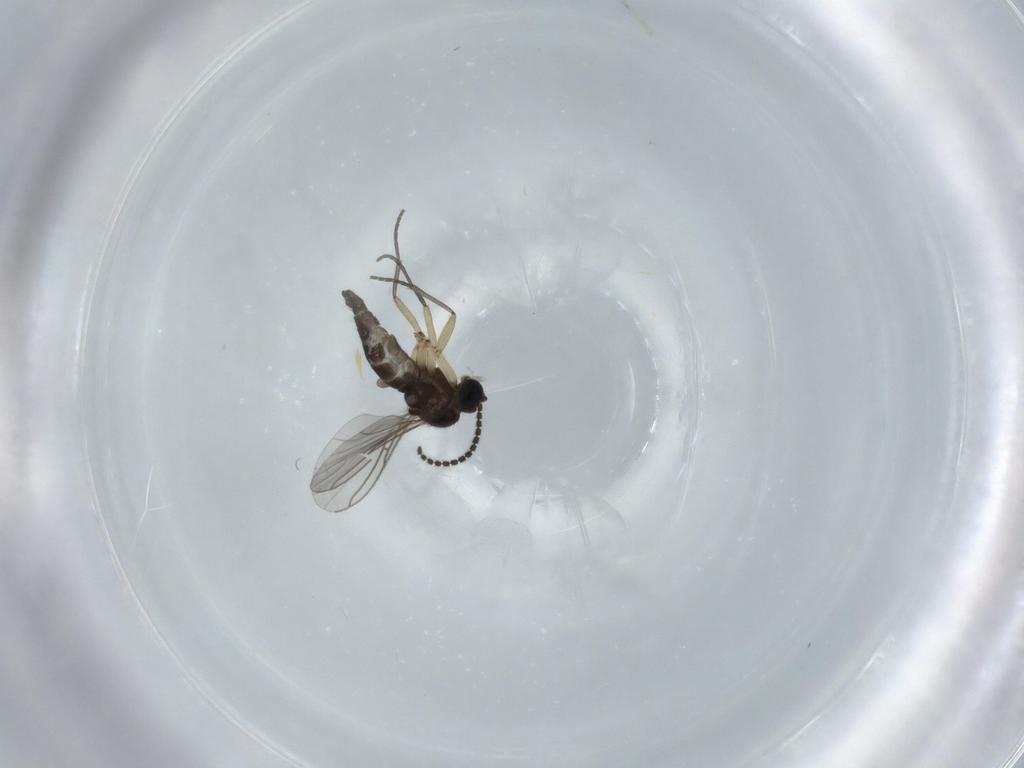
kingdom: Animalia
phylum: Arthropoda
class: Insecta
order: Diptera
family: Sciaridae
